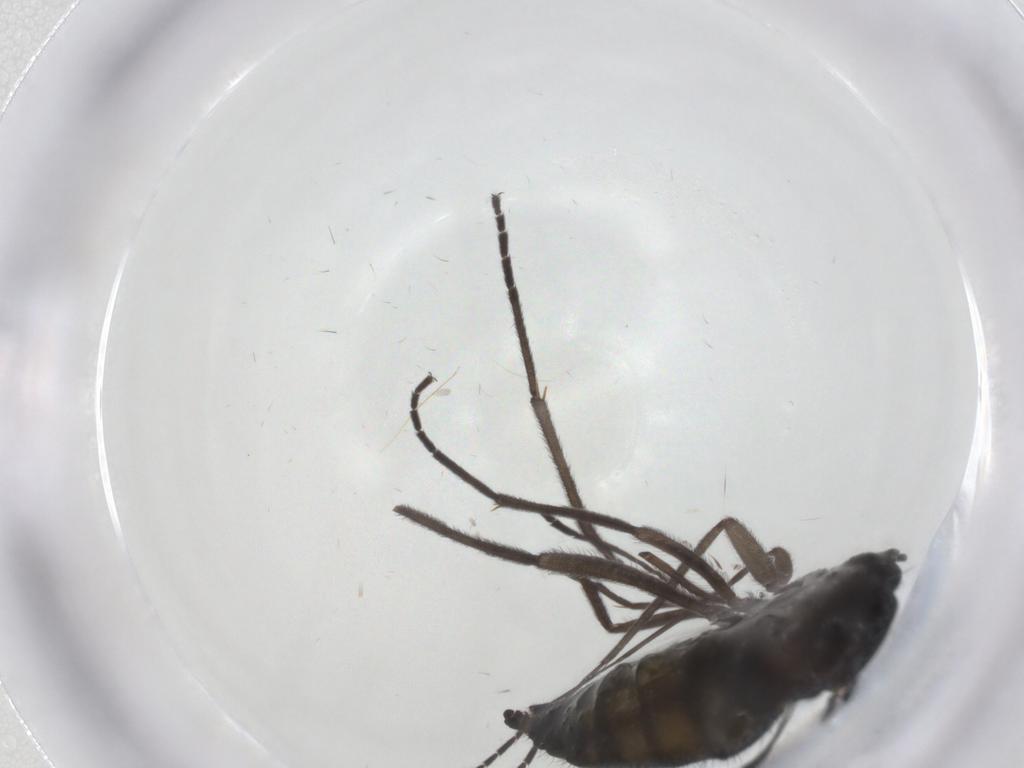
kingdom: Animalia
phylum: Arthropoda
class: Insecta
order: Diptera
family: Sciaridae
